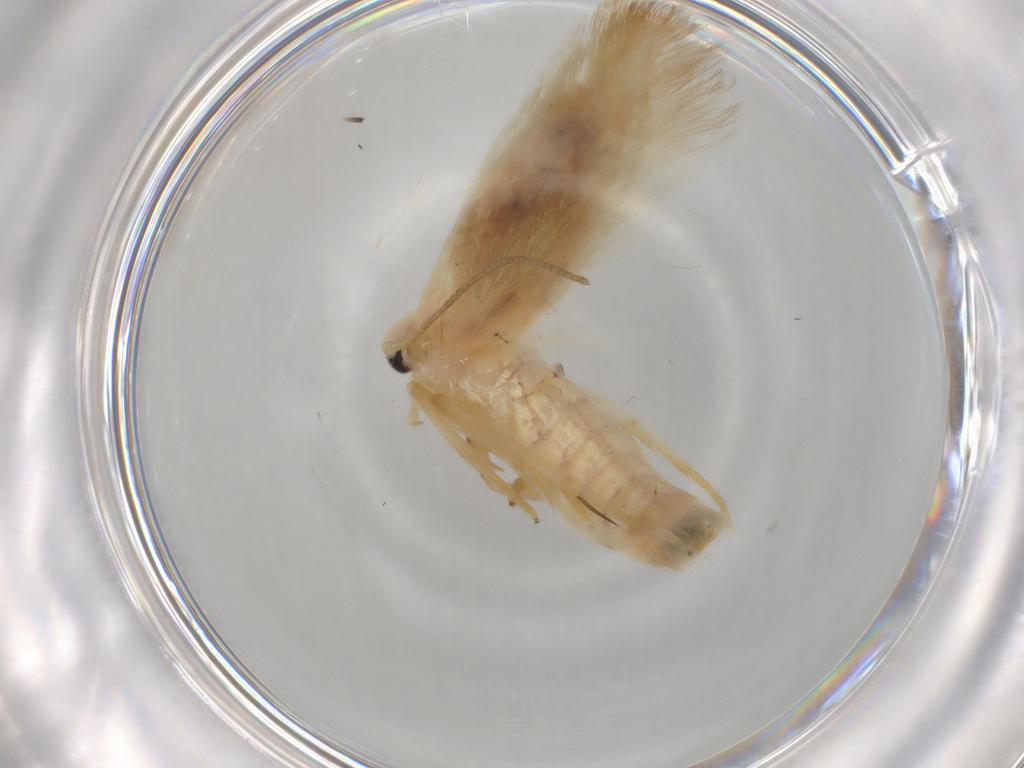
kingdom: Animalia
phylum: Arthropoda
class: Insecta
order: Lepidoptera
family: Geometridae
